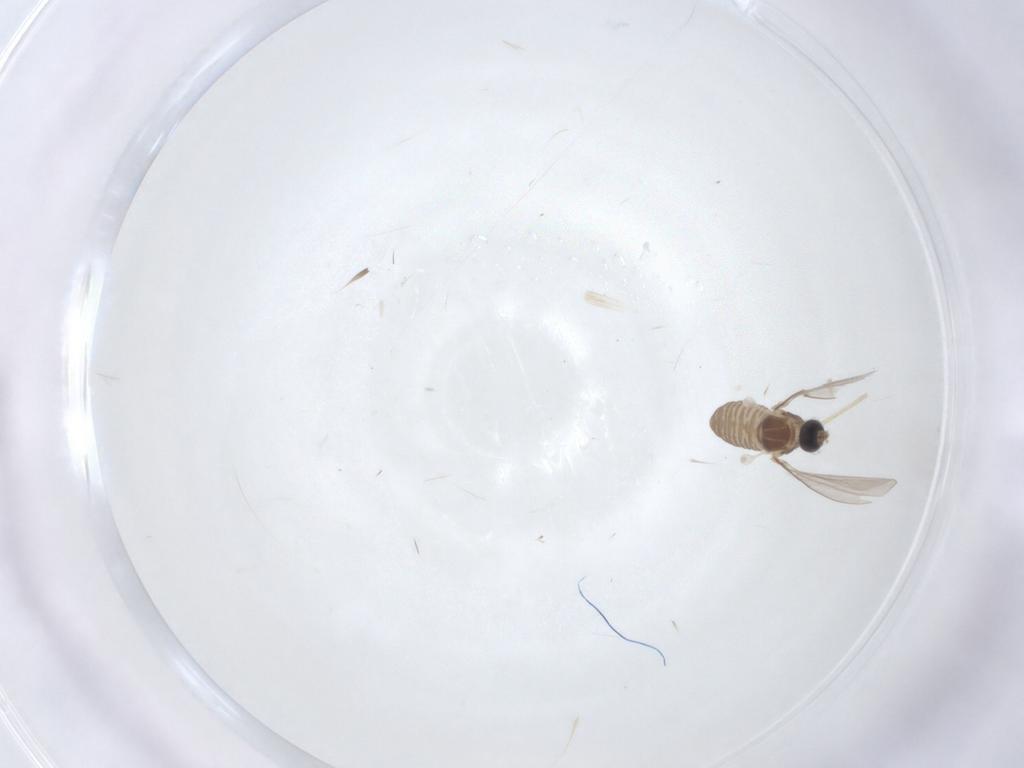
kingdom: Animalia
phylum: Arthropoda
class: Insecta
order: Diptera
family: Cecidomyiidae
